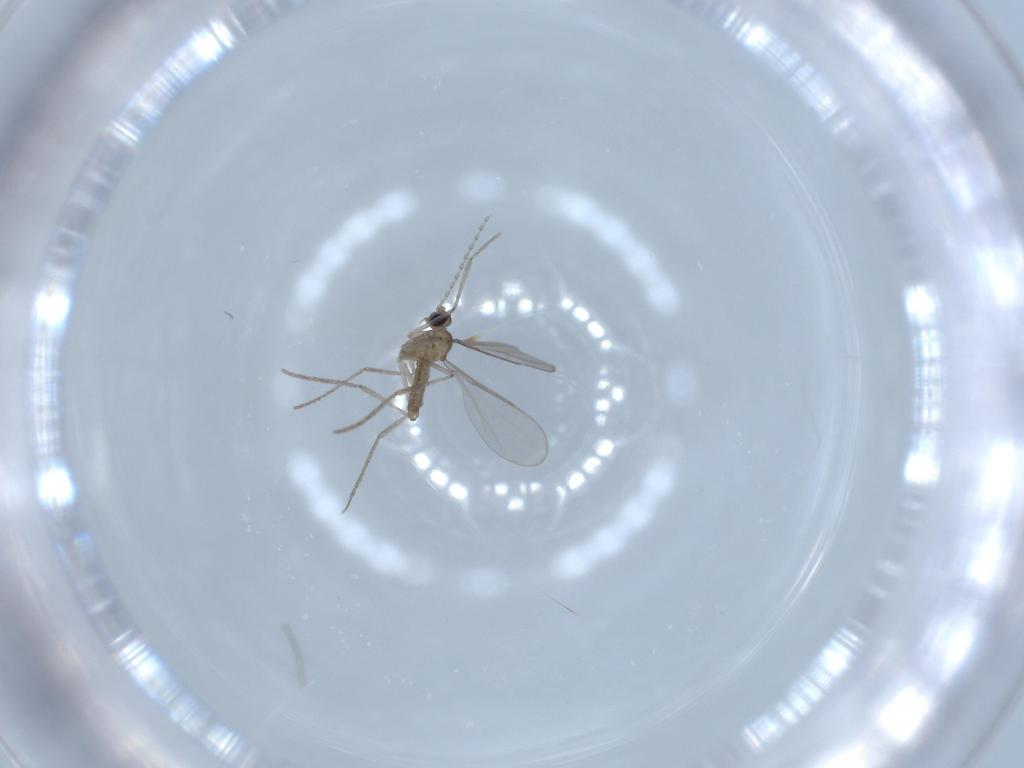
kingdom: Animalia
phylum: Arthropoda
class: Insecta
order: Diptera
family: Cecidomyiidae
